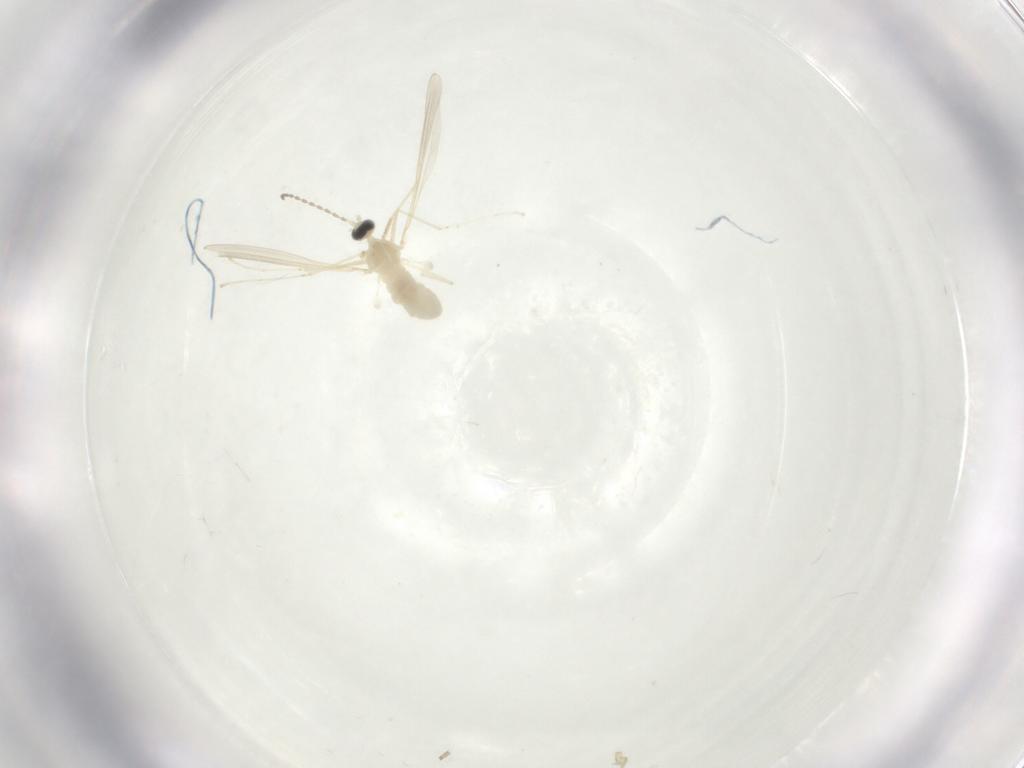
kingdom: Animalia
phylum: Arthropoda
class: Insecta
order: Diptera
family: Cecidomyiidae
